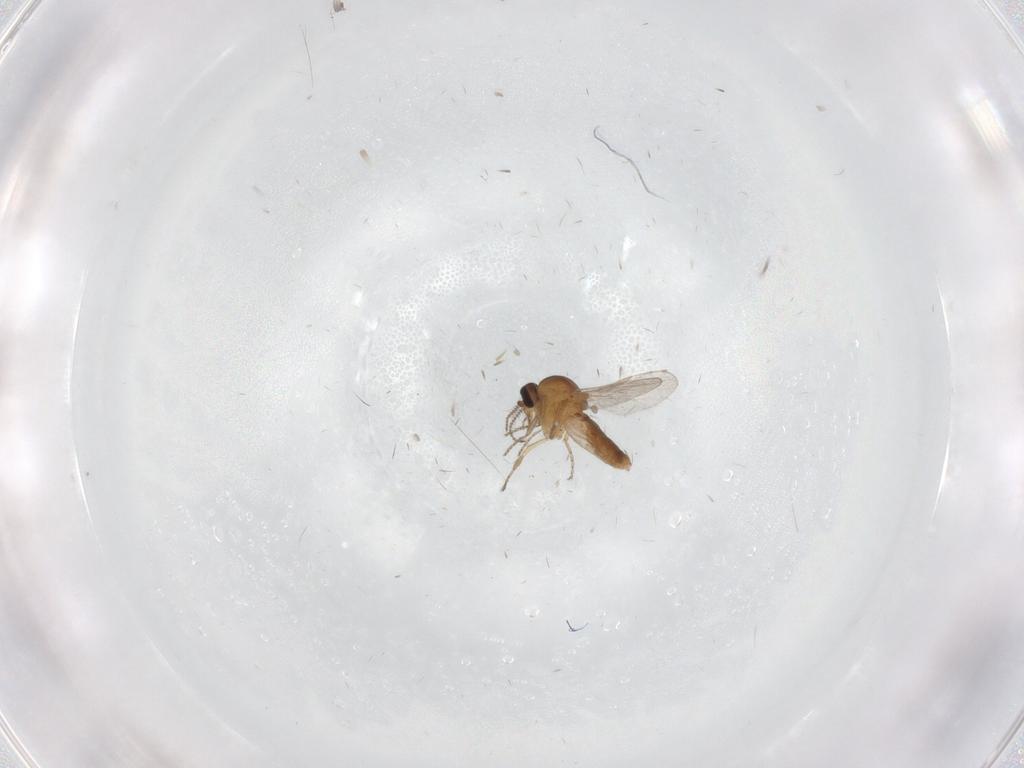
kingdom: Animalia
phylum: Arthropoda
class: Insecta
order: Diptera
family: Ceratopogonidae
